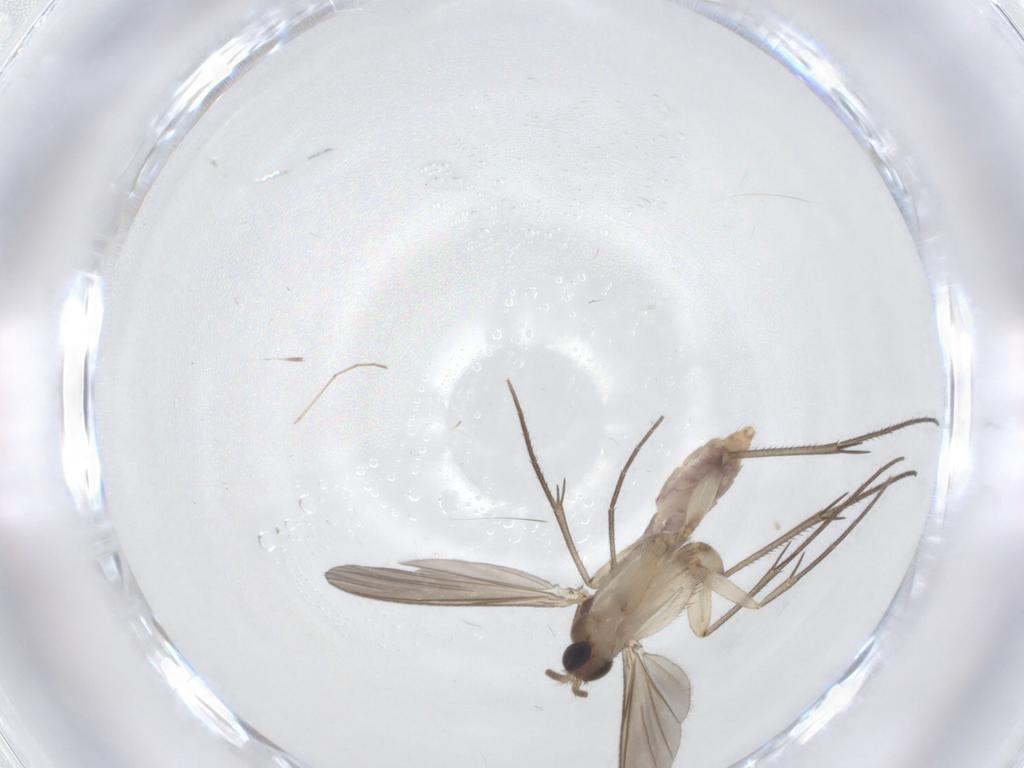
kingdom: Animalia
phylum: Arthropoda
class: Insecta
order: Diptera
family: Mycetophilidae
